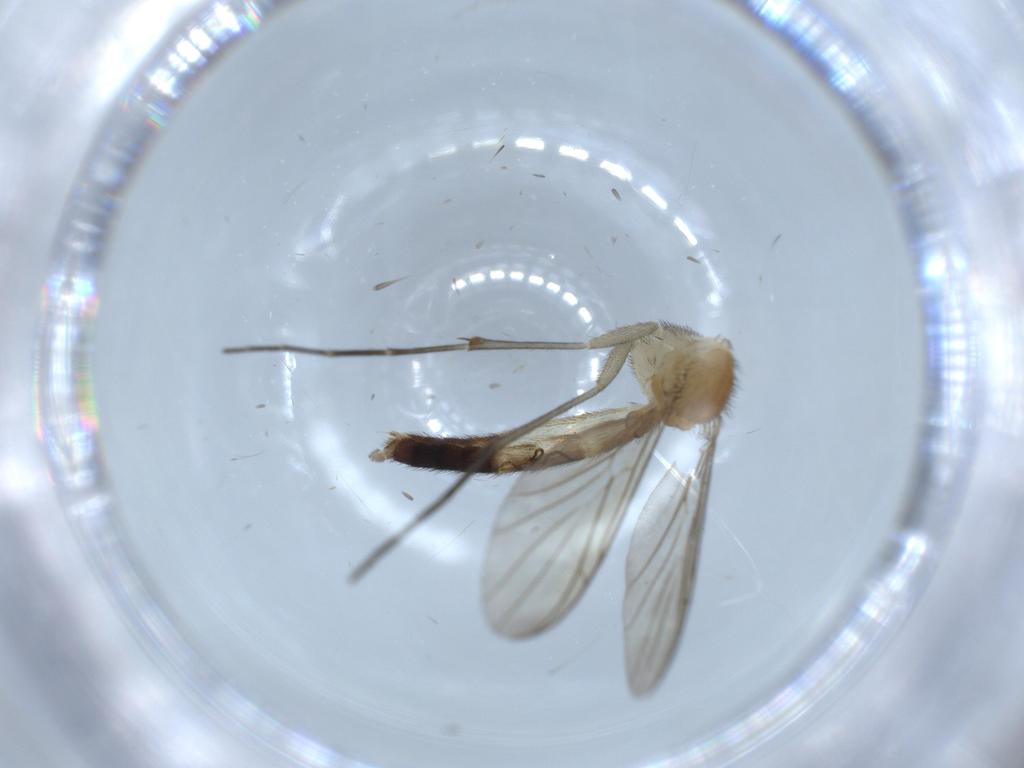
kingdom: Animalia
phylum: Arthropoda
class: Insecta
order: Diptera
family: Keroplatidae
